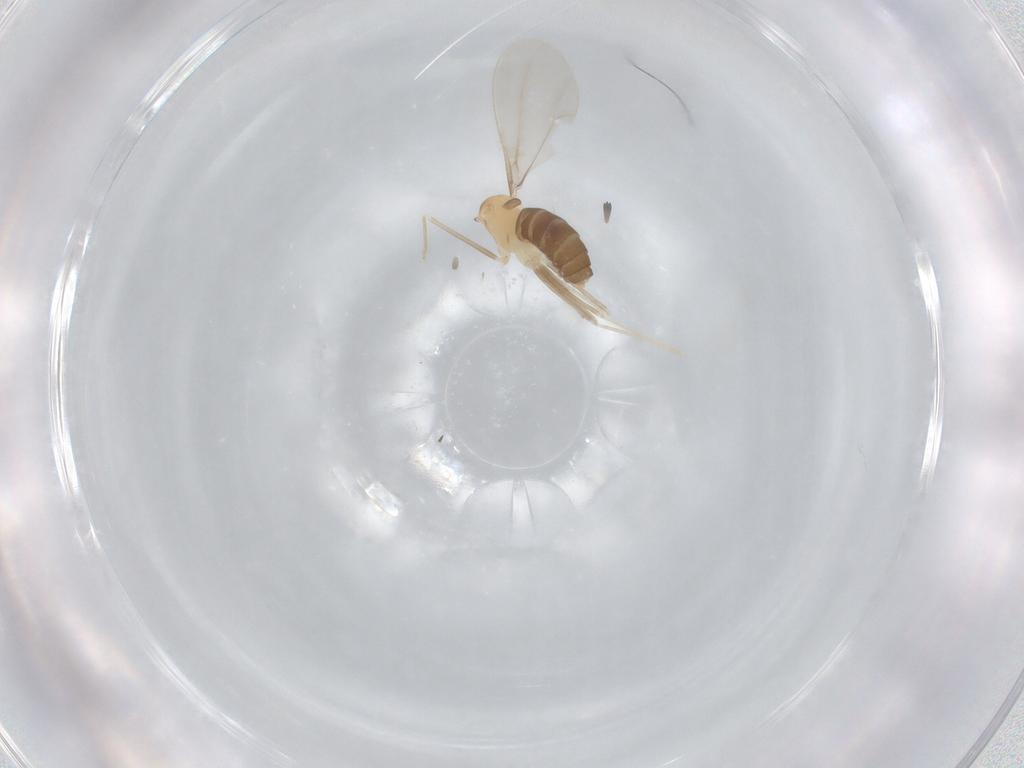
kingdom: Animalia
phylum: Arthropoda
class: Insecta
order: Diptera
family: Cecidomyiidae
